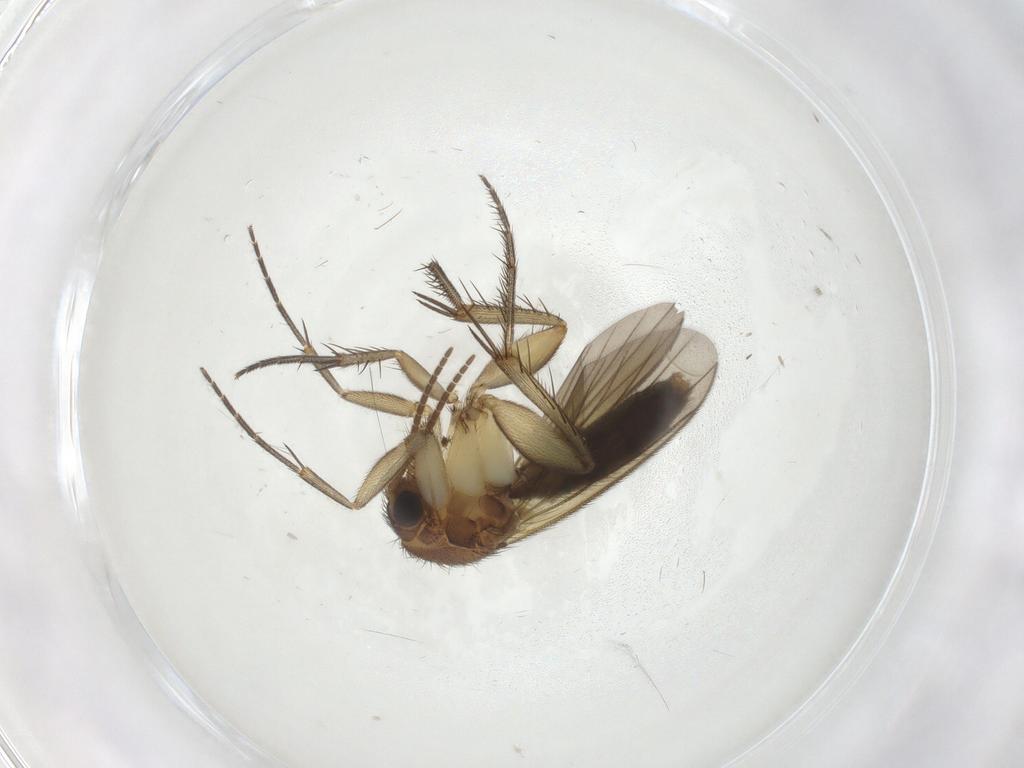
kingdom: Animalia
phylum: Arthropoda
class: Insecta
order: Diptera
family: Mycetophilidae
